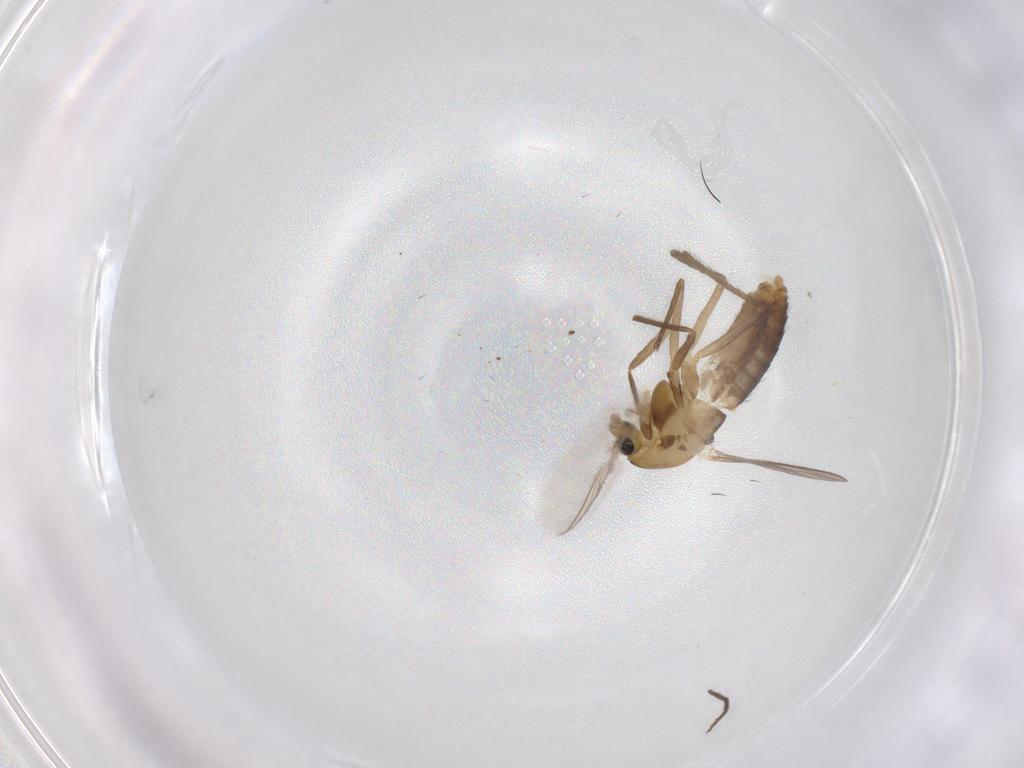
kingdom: Animalia
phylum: Arthropoda
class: Insecta
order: Diptera
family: Chironomidae
